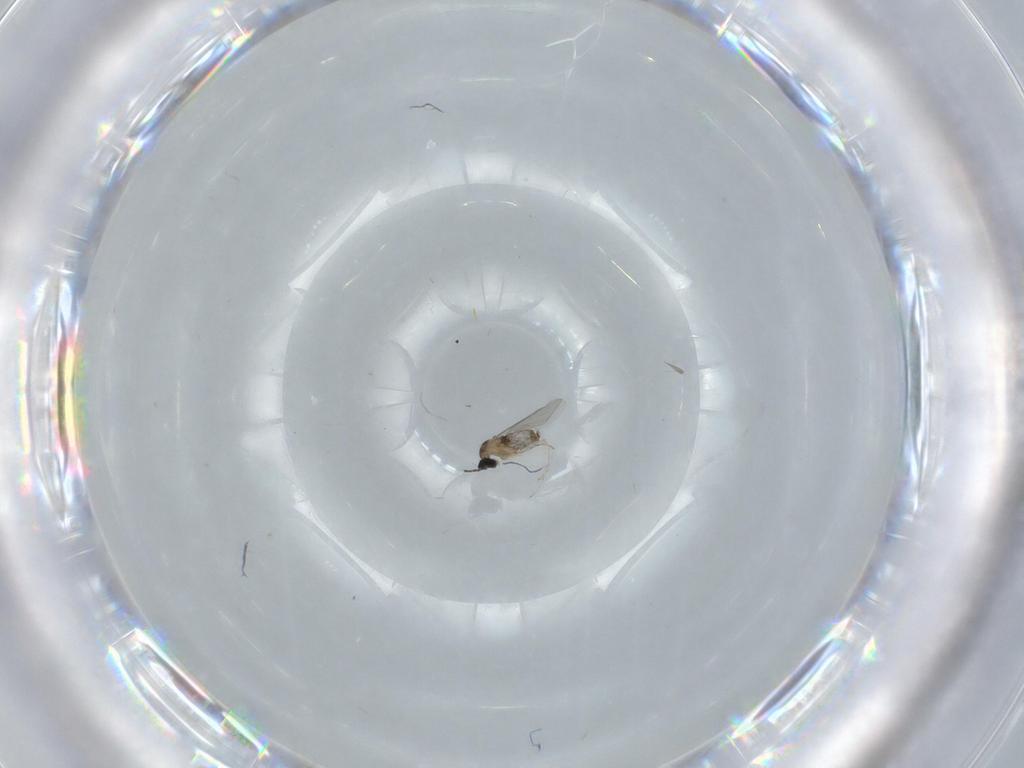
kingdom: Animalia
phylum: Arthropoda
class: Insecta
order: Diptera
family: Cecidomyiidae
